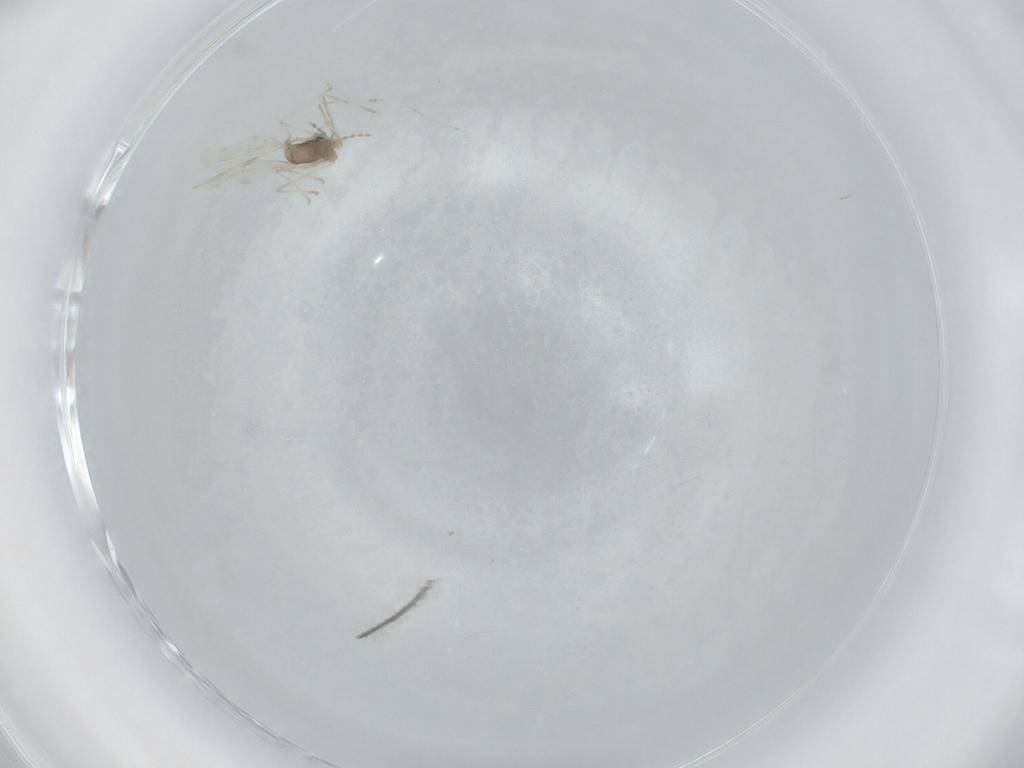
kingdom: Animalia
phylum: Arthropoda
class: Insecta
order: Diptera
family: Cecidomyiidae
